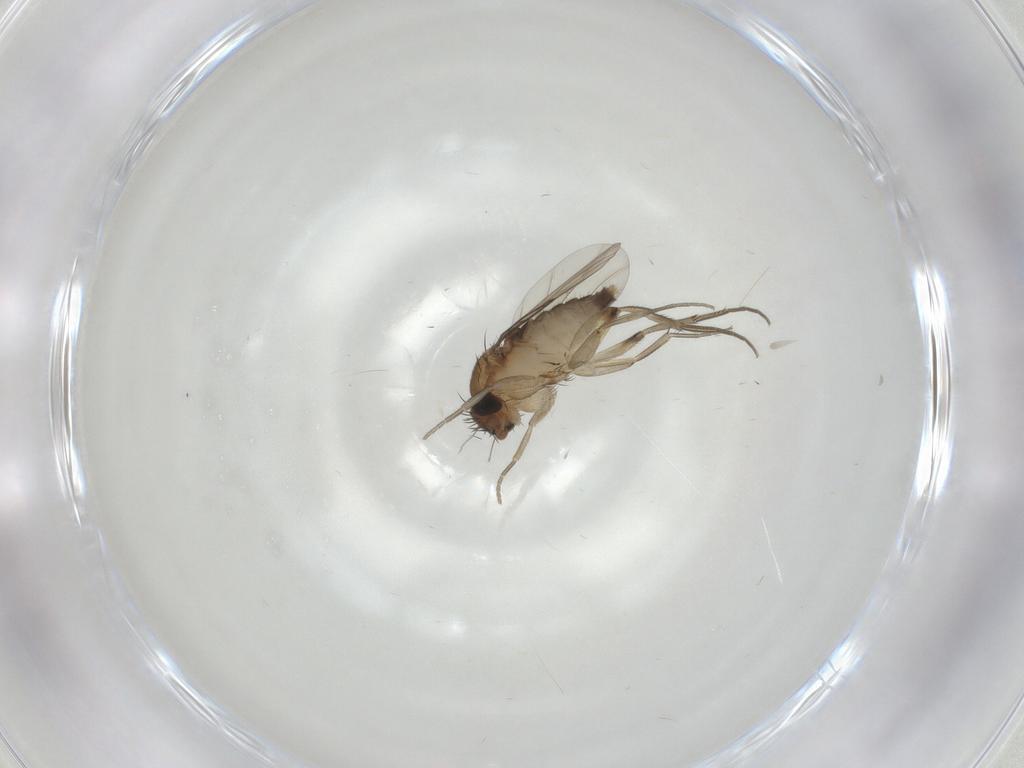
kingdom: Animalia
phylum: Arthropoda
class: Insecta
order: Diptera
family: Phoridae
